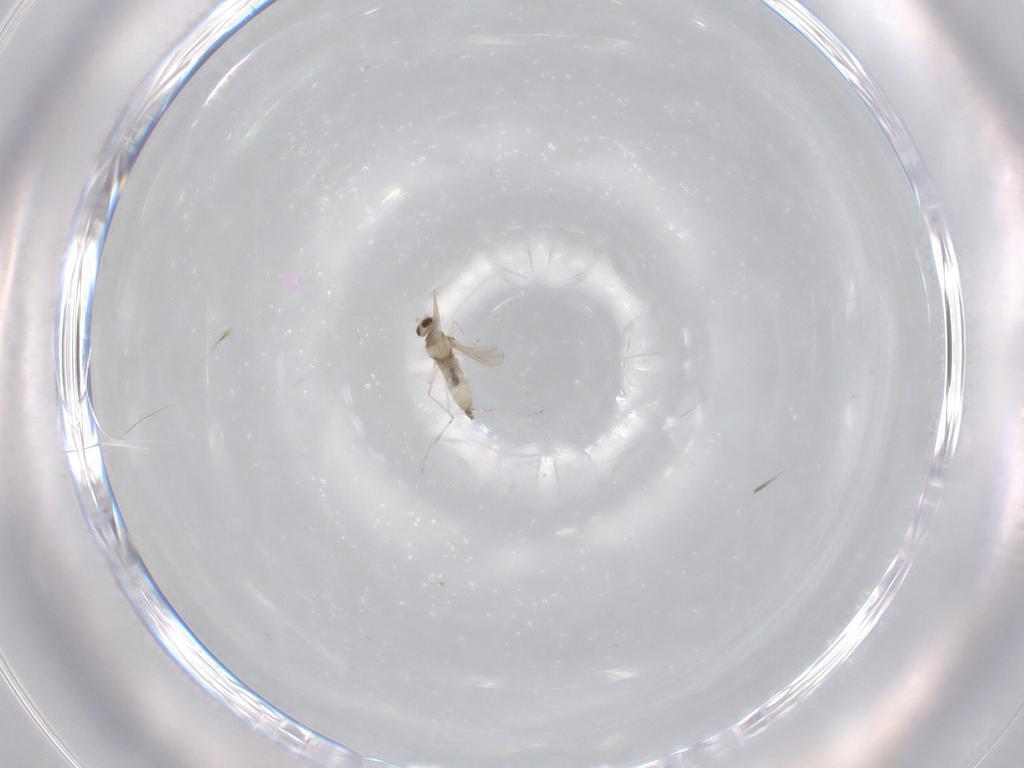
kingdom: Animalia
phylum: Arthropoda
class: Insecta
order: Diptera
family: Cecidomyiidae
